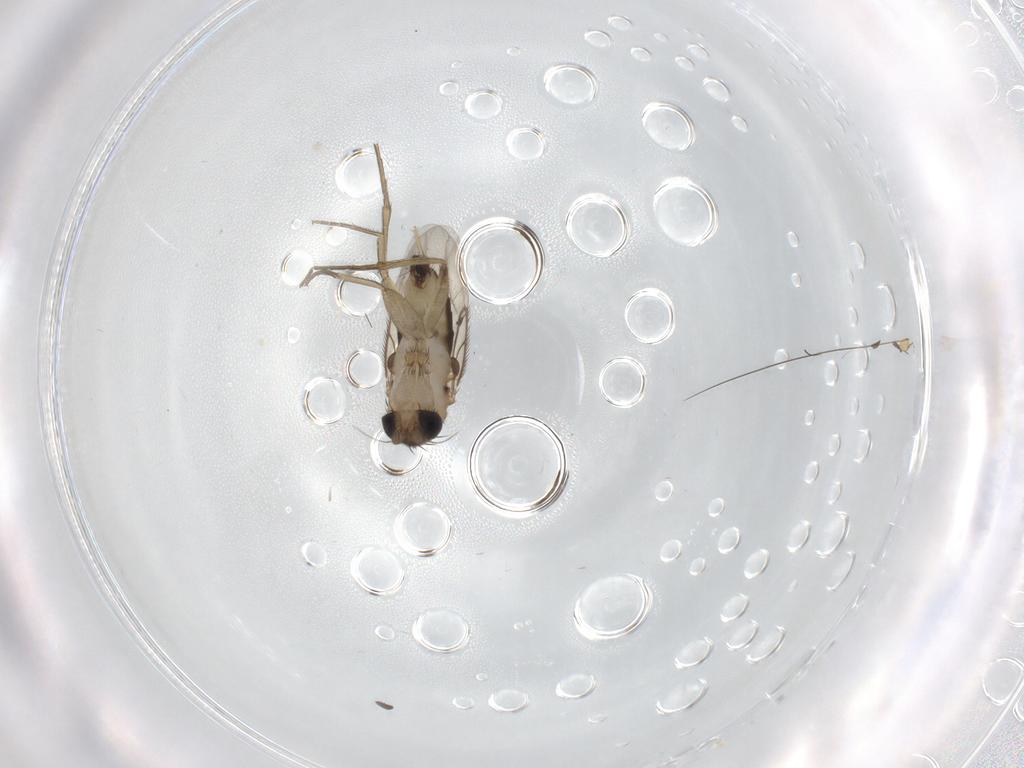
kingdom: Animalia
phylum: Arthropoda
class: Insecta
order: Diptera
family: Phoridae
